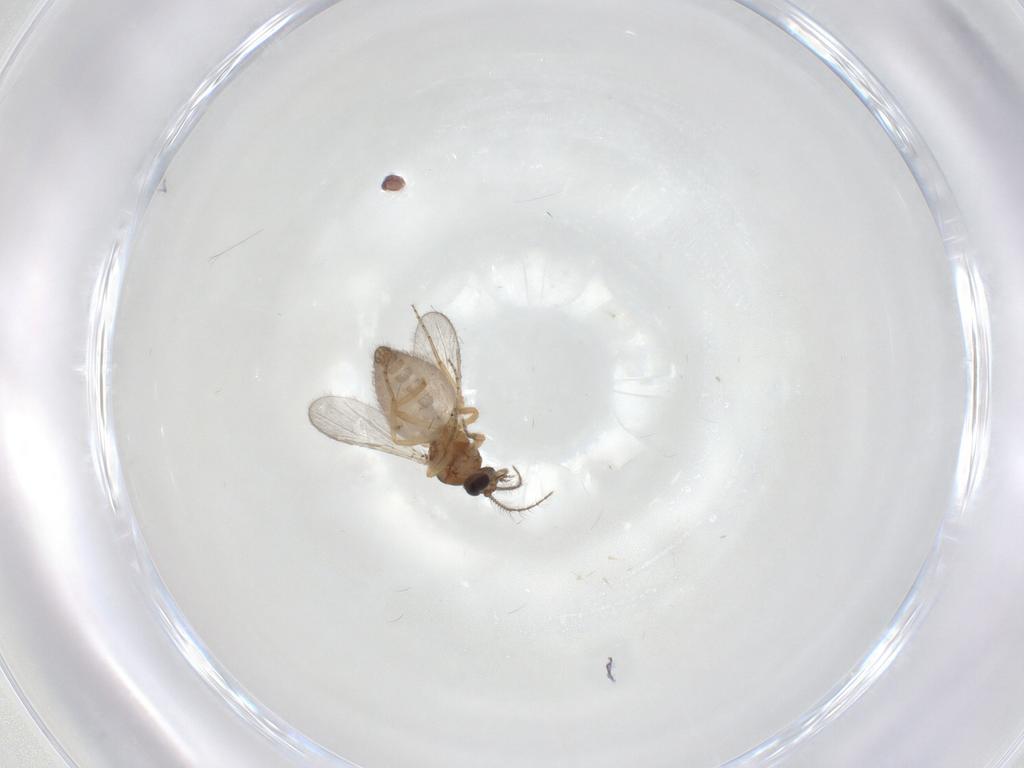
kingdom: Animalia
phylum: Arthropoda
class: Insecta
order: Diptera
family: Ceratopogonidae
